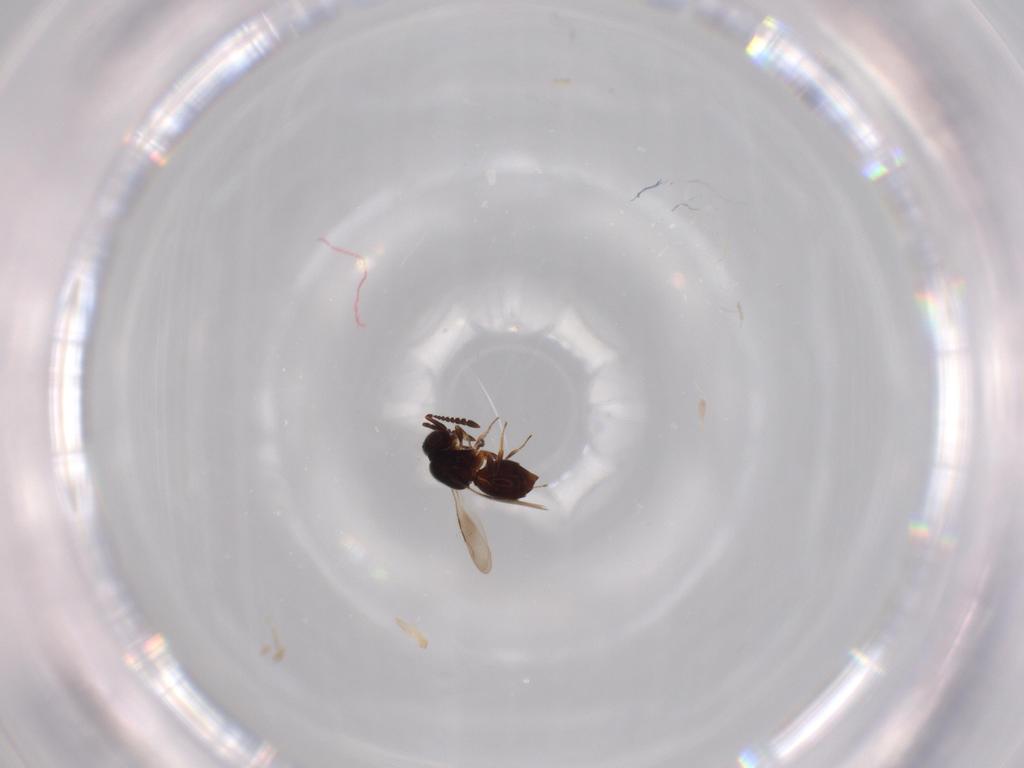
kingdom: Animalia
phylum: Arthropoda
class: Insecta
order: Hymenoptera
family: Ceraphronidae
